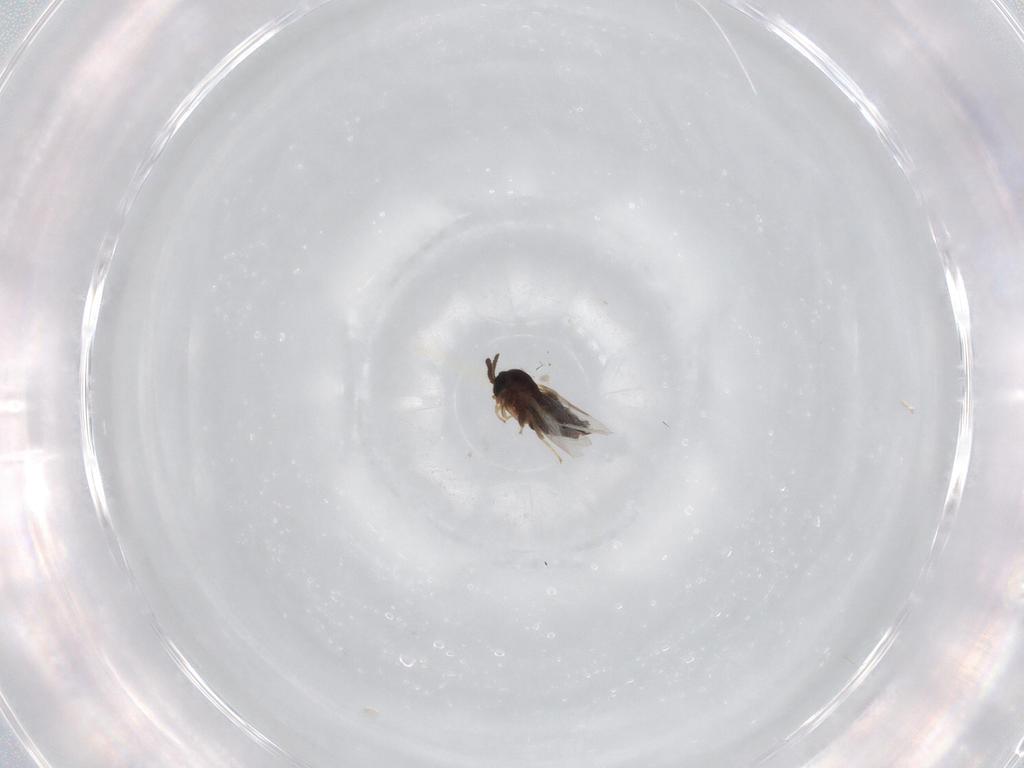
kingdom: Animalia
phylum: Arthropoda
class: Insecta
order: Diptera
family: Scatopsidae
